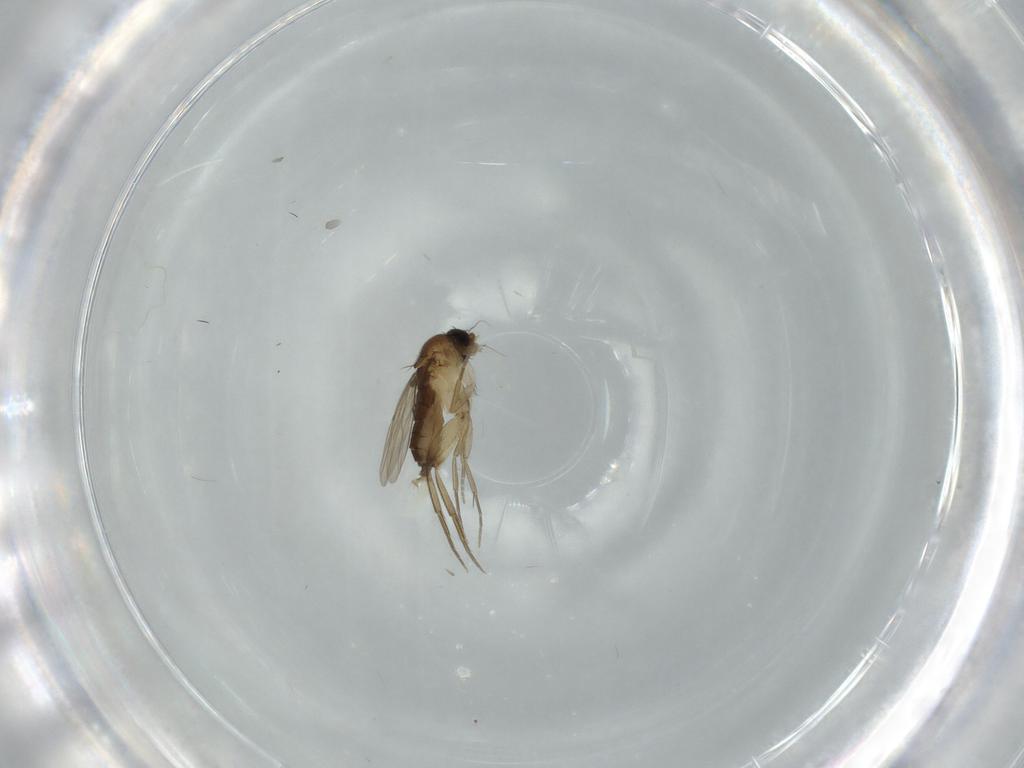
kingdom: Animalia
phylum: Arthropoda
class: Insecta
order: Diptera
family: Phoridae
